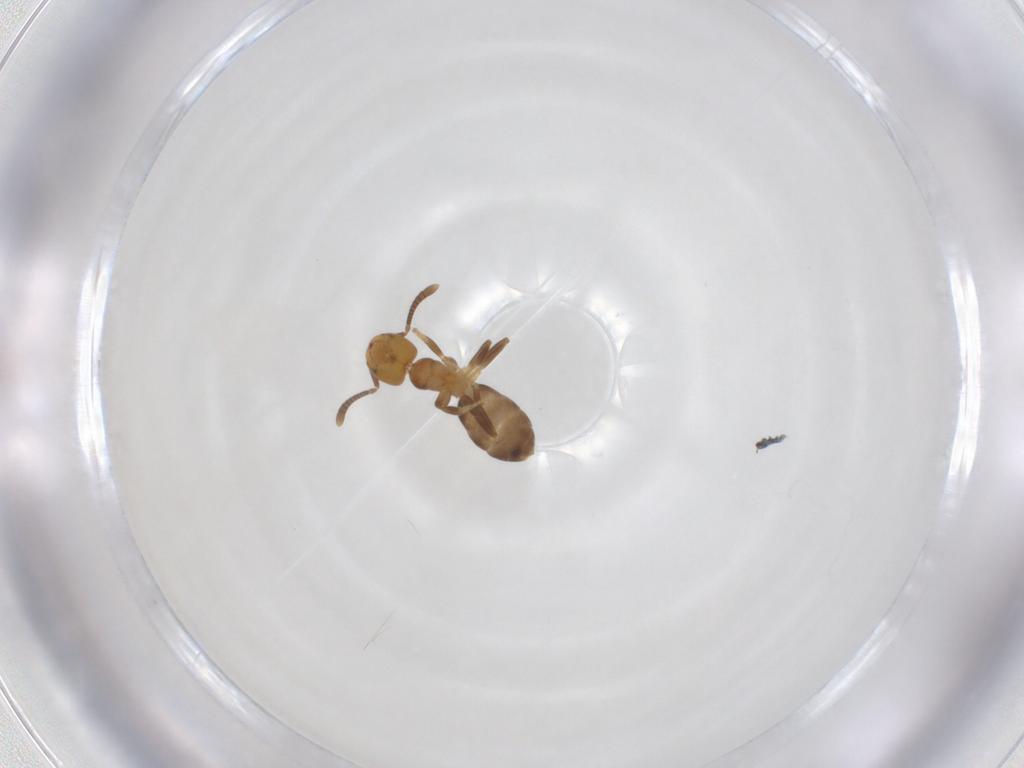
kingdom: Animalia
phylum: Arthropoda
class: Insecta
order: Hymenoptera
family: Formicidae
